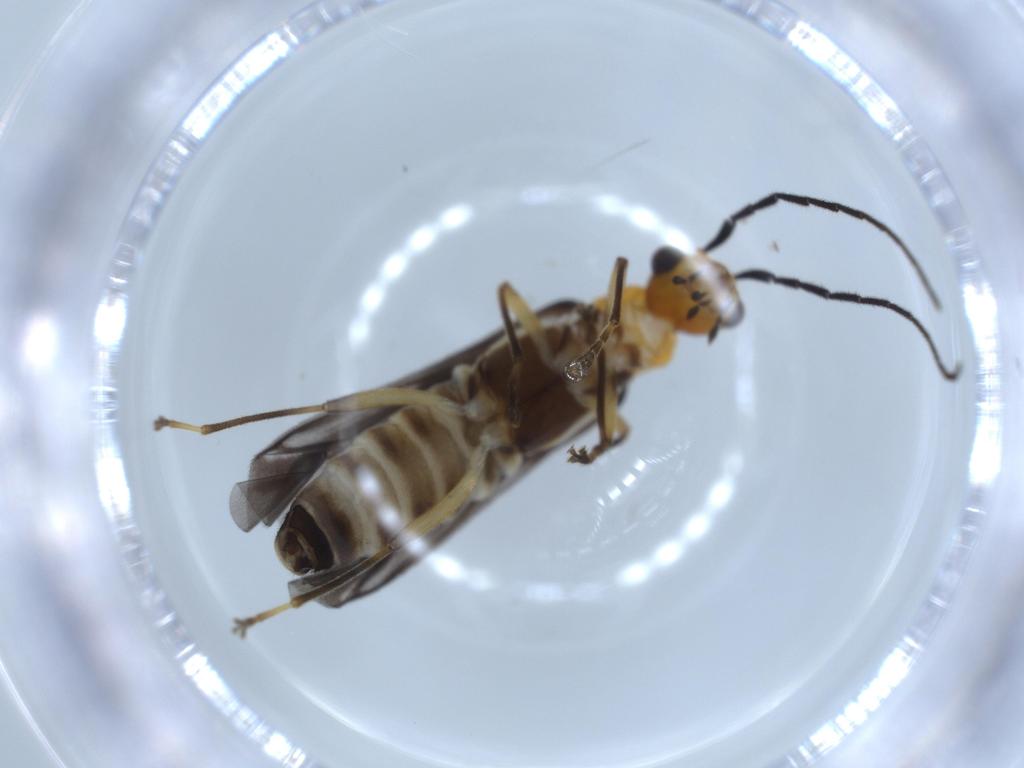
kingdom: Animalia
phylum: Arthropoda
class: Insecta
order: Coleoptera
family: Cantharidae
